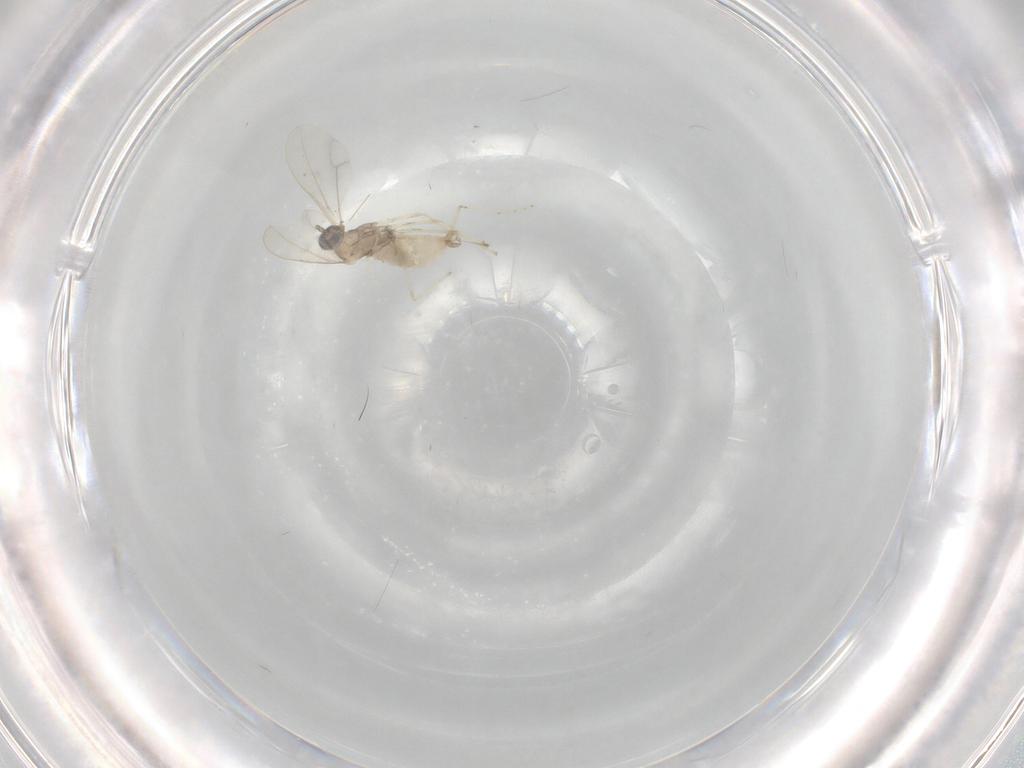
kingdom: Animalia
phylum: Arthropoda
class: Insecta
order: Diptera
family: Cecidomyiidae
